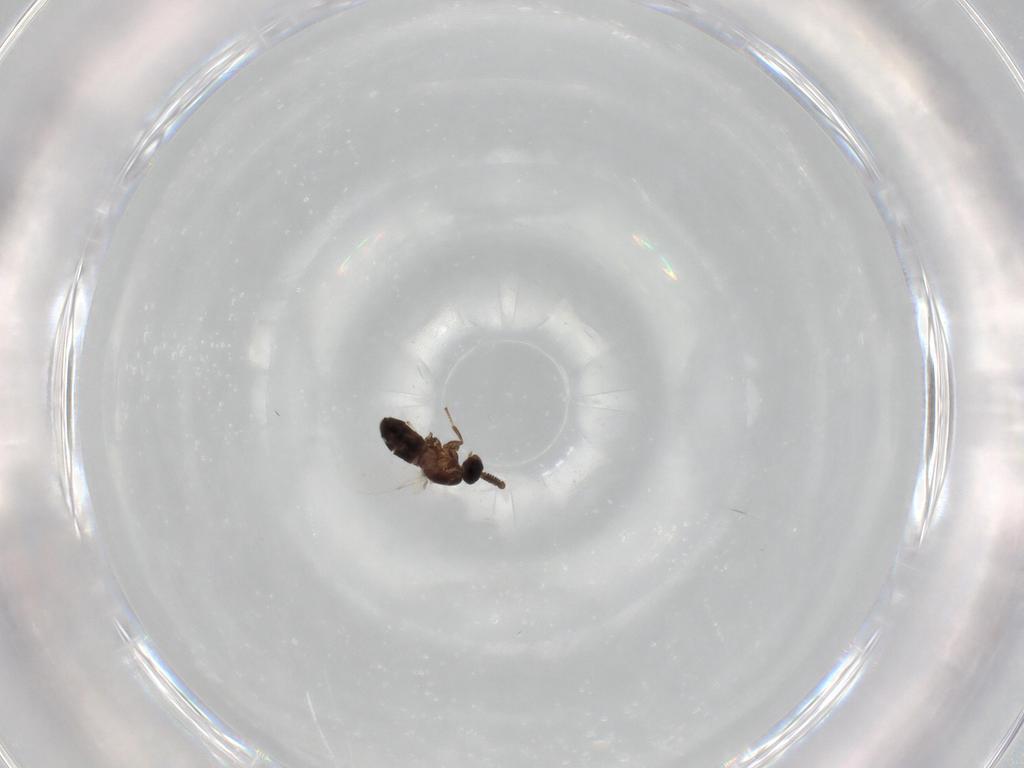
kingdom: Animalia
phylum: Arthropoda
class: Insecta
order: Diptera
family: Scatopsidae
